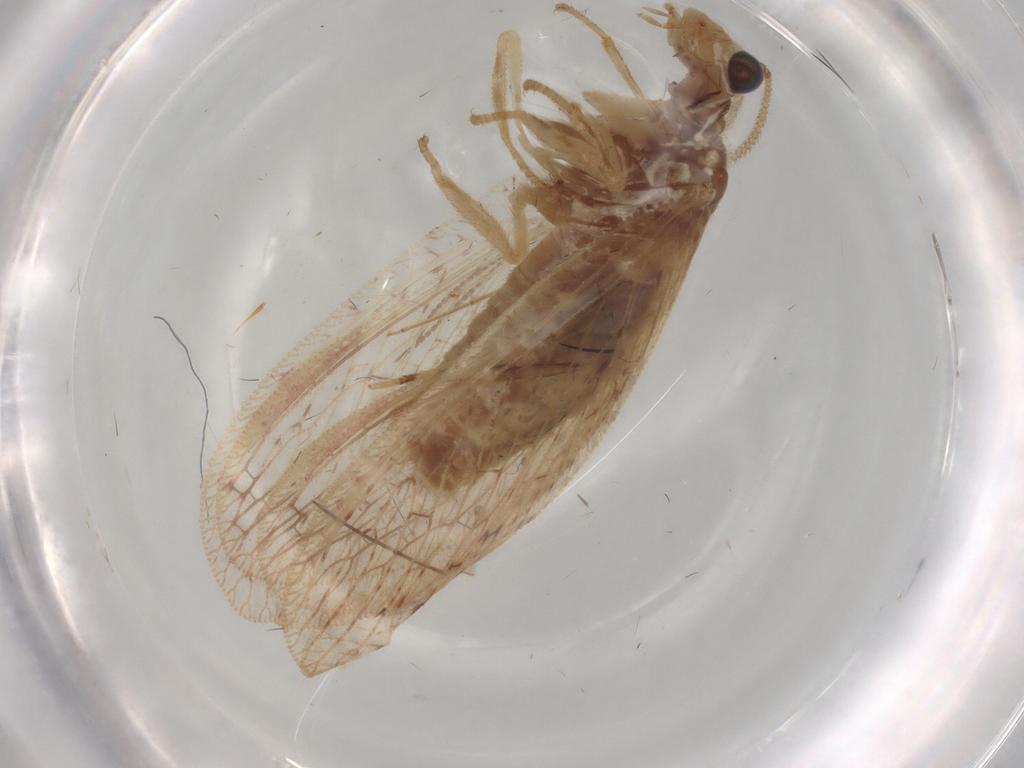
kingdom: Animalia
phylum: Arthropoda
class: Insecta
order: Neuroptera
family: Hemerobiidae
